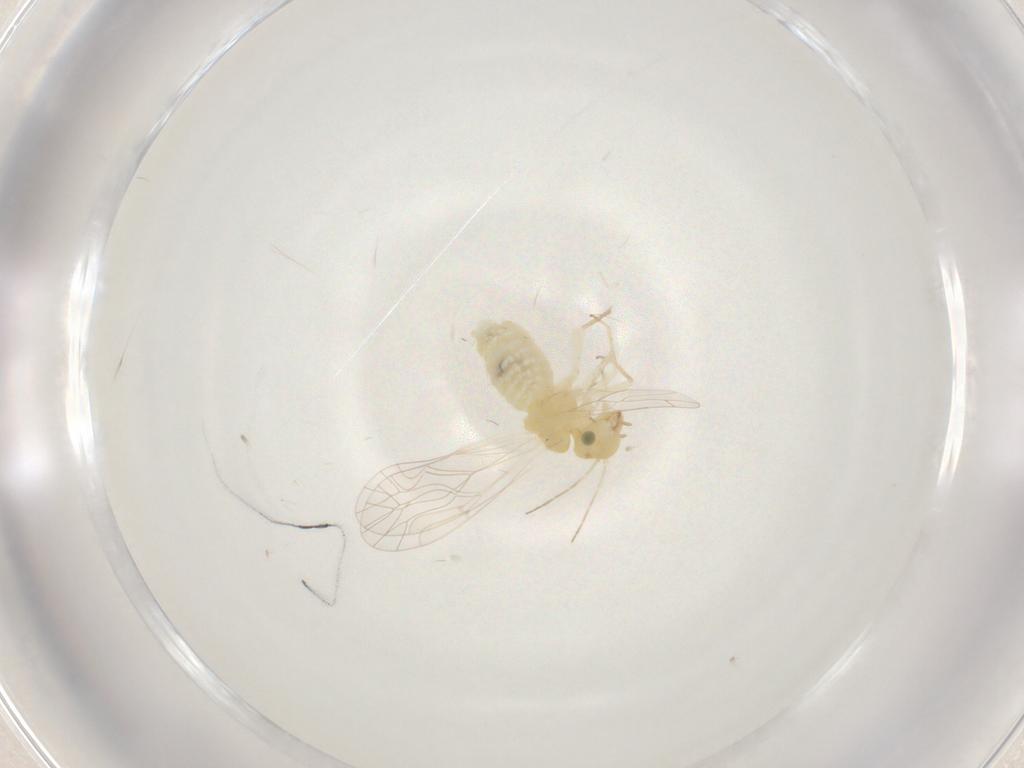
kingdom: Animalia
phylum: Arthropoda
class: Insecta
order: Psocodea
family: Lachesillidae
